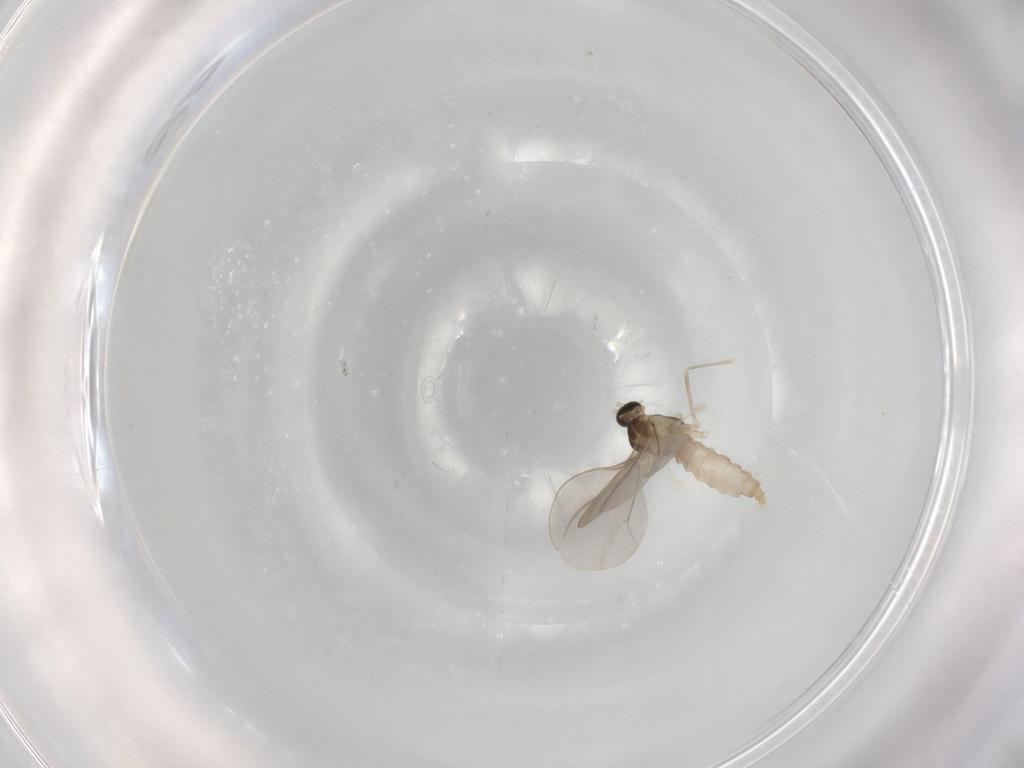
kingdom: Animalia
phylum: Arthropoda
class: Insecta
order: Diptera
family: Cecidomyiidae
